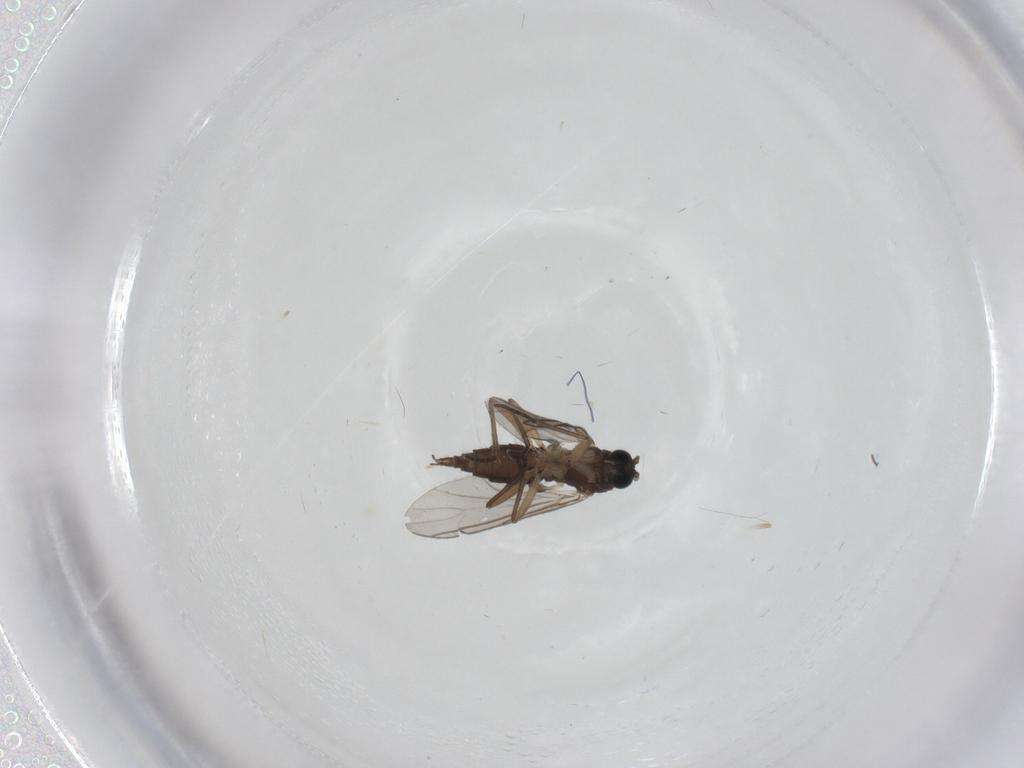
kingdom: Animalia
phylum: Arthropoda
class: Insecta
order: Diptera
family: Sciaridae
